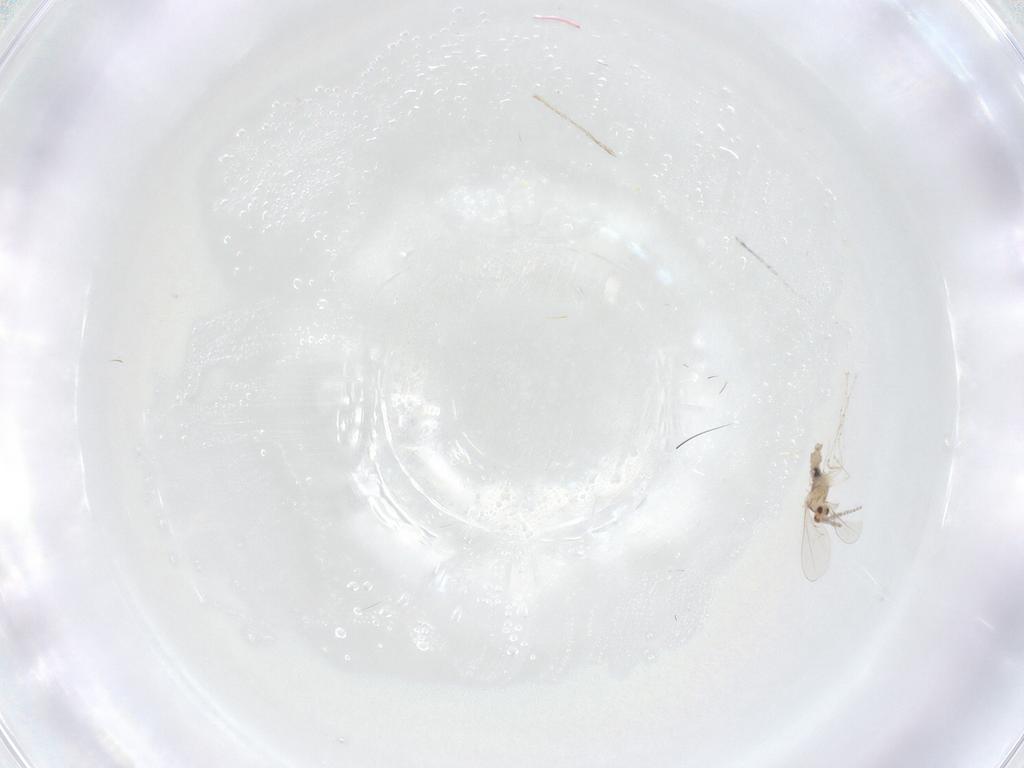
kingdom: Animalia
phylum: Arthropoda
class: Insecta
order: Diptera
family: Cecidomyiidae
